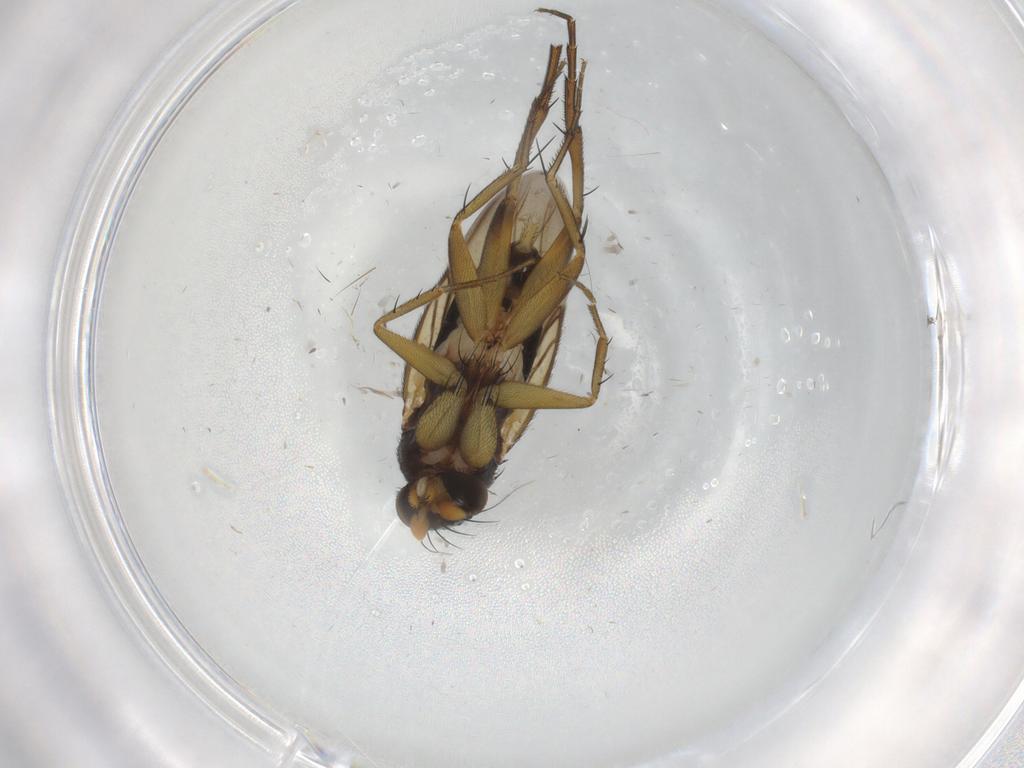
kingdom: Animalia
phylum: Arthropoda
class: Insecta
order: Diptera
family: Phoridae
